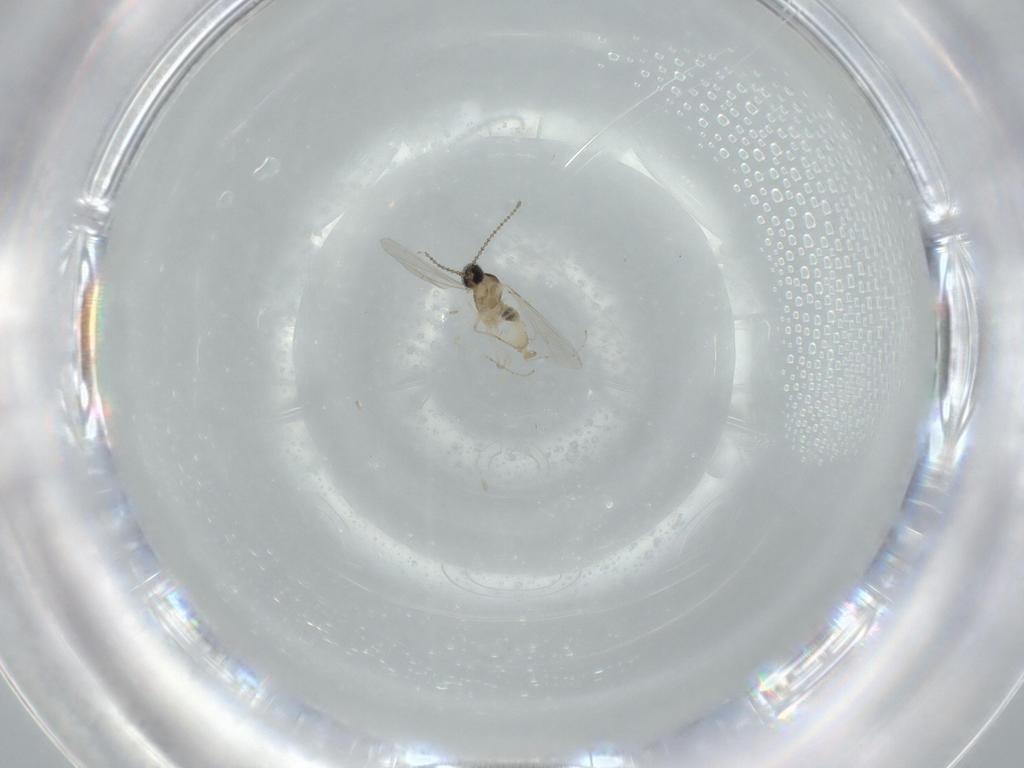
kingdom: Animalia
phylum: Arthropoda
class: Insecta
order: Diptera
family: Cecidomyiidae
